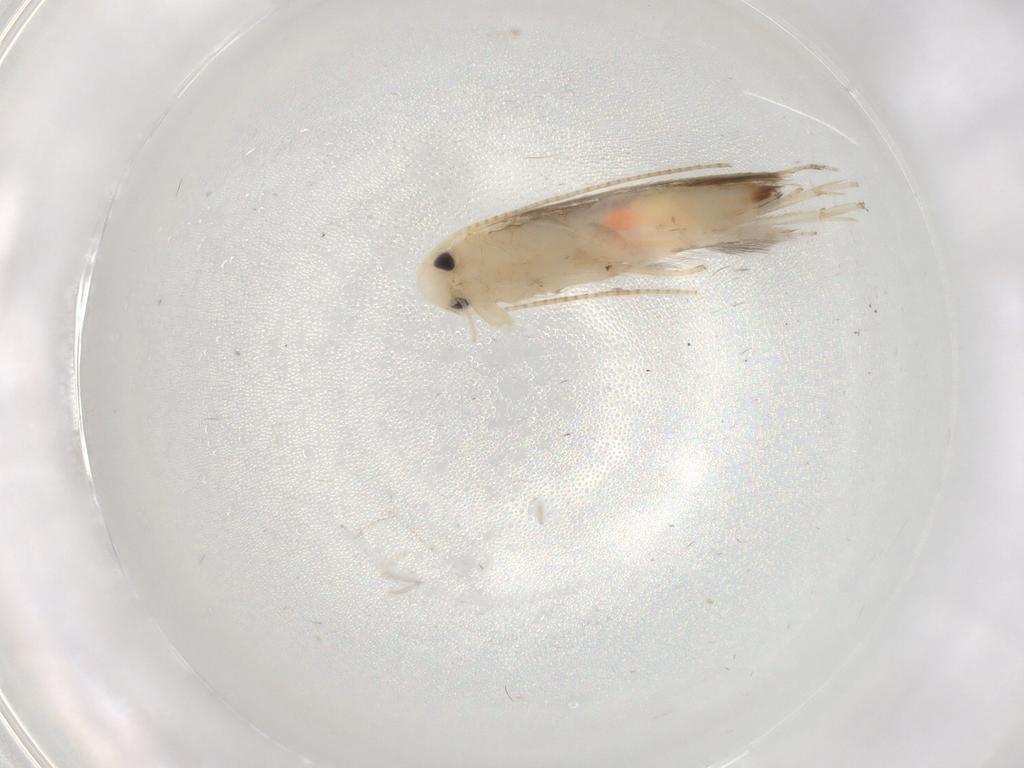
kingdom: Animalia
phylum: Arthropoda
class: Insecta
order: Lepidoptera
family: Lyonetiidae
